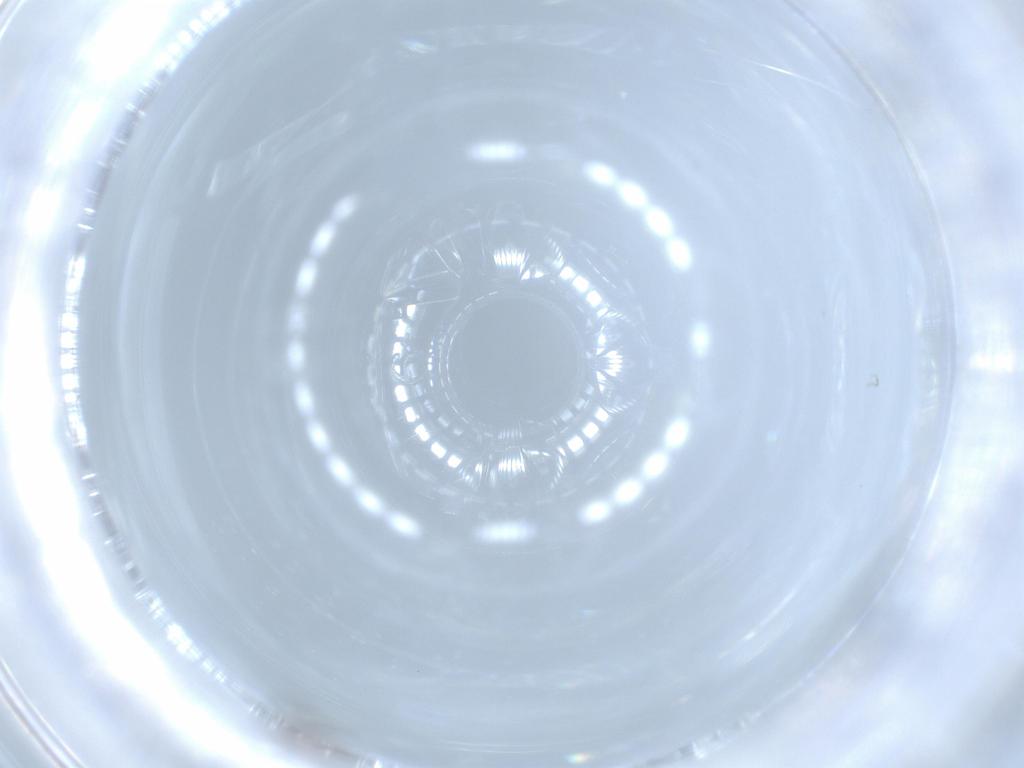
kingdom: Animalia
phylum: Arthropoda
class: Insecta
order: Diptera
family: Chironomidae
